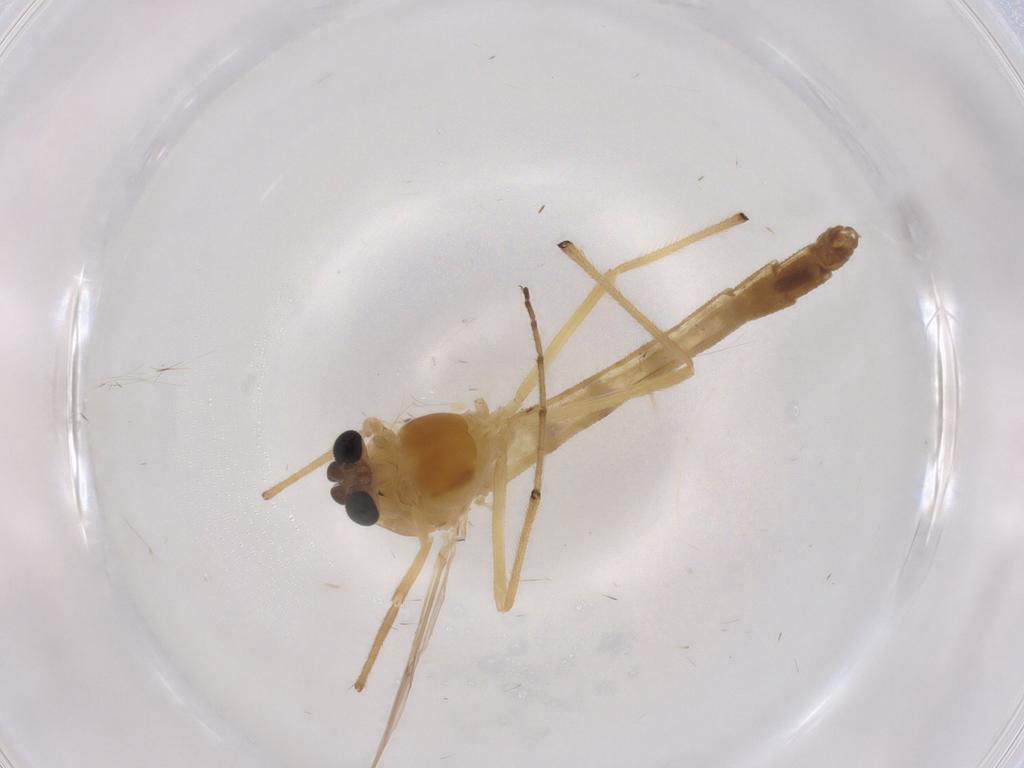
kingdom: Animalia
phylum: Arthropoda
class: Insecta
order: Diptera
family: Chironomidae
